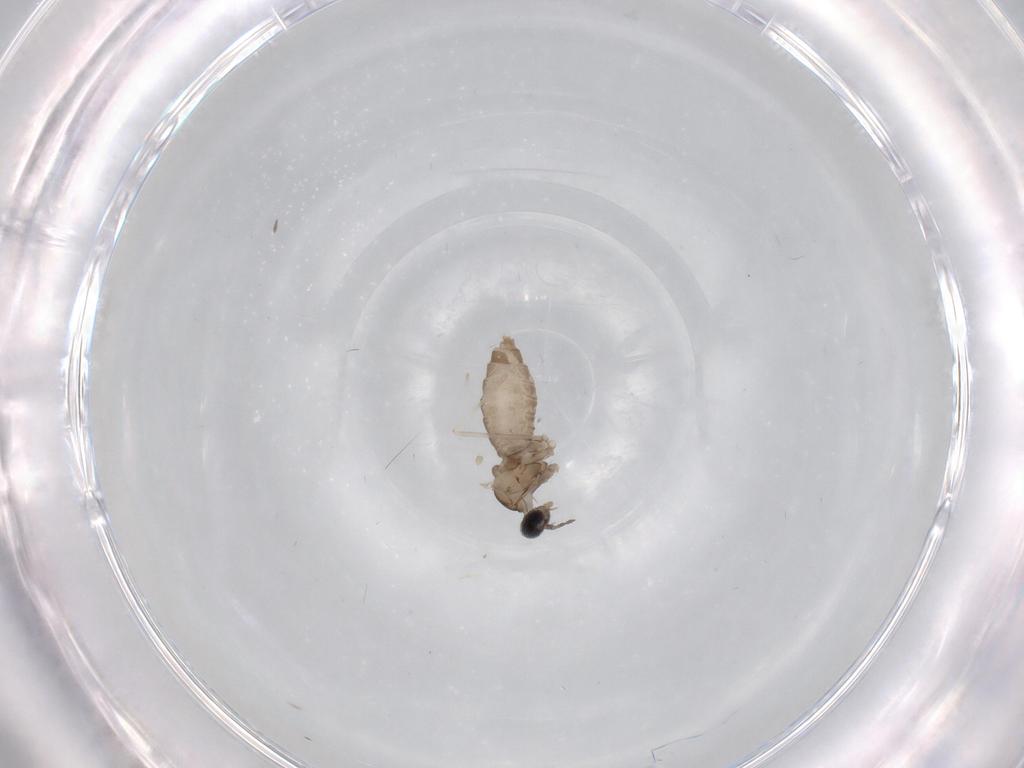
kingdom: Animalia
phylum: Arthropoda
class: Insecta
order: Diptera
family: Cecidomyiidae
